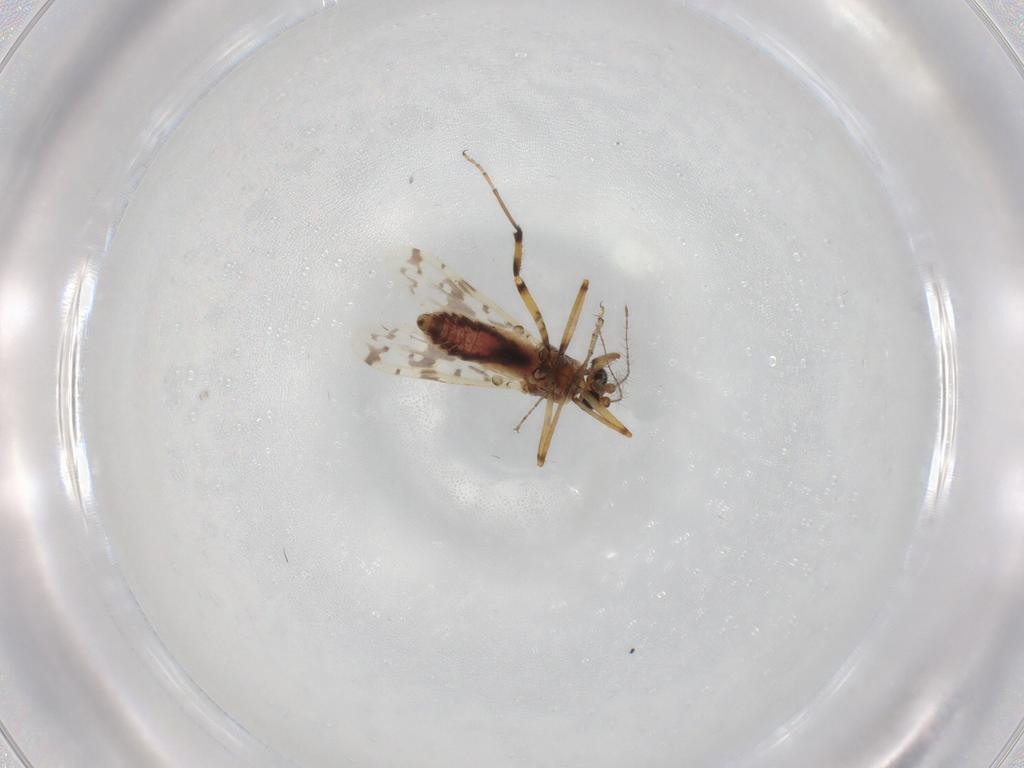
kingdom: Animalia
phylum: Arthropoda
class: Insecta
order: Diptera
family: Ceratopogonidae
